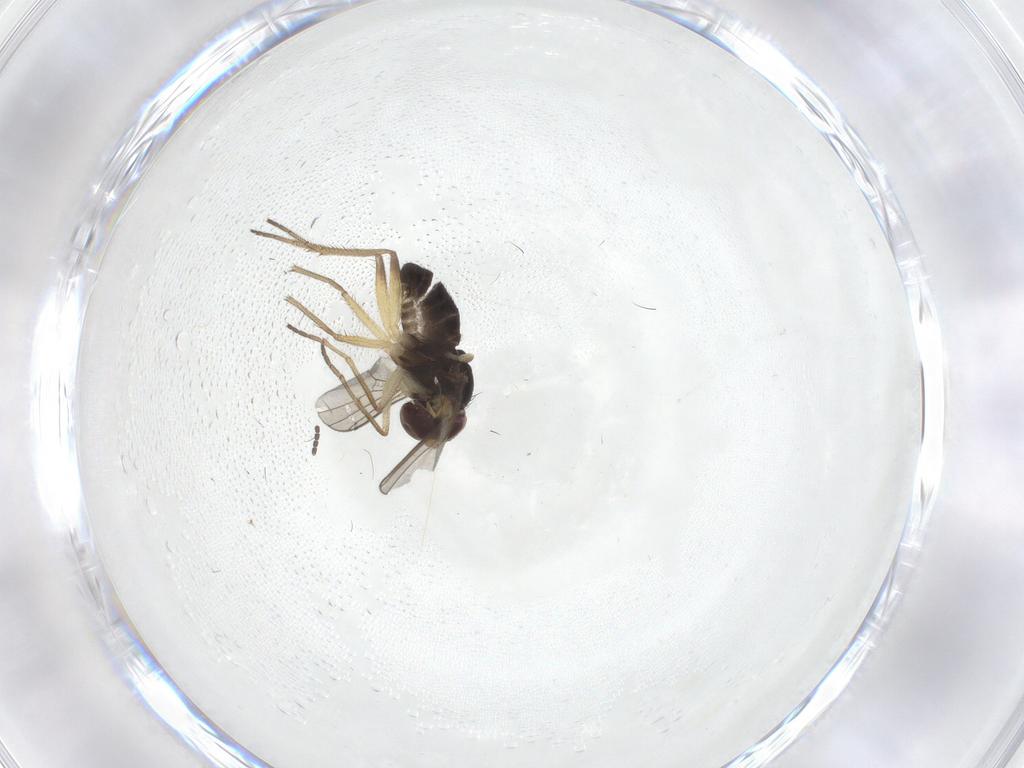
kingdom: Animalia
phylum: Arthropoda
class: Insecta
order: Diptera
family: Dolichopodidae
